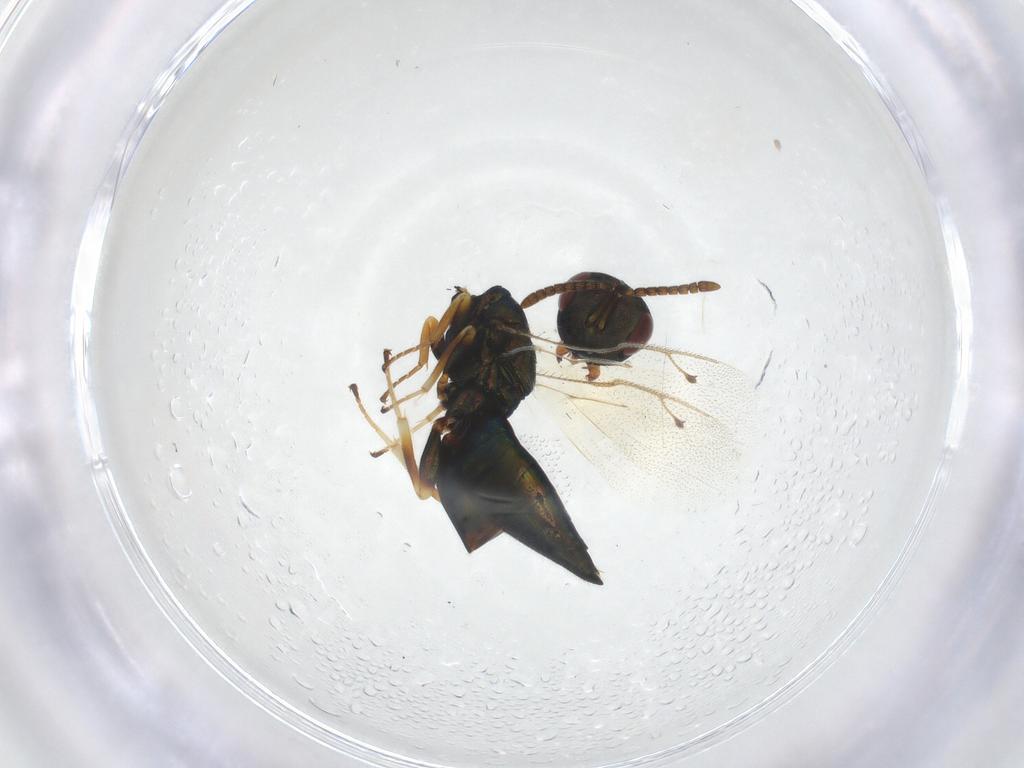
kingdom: Animalia
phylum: Arthropoda
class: Insecta
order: Hymenoptera
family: Pteromalidae
